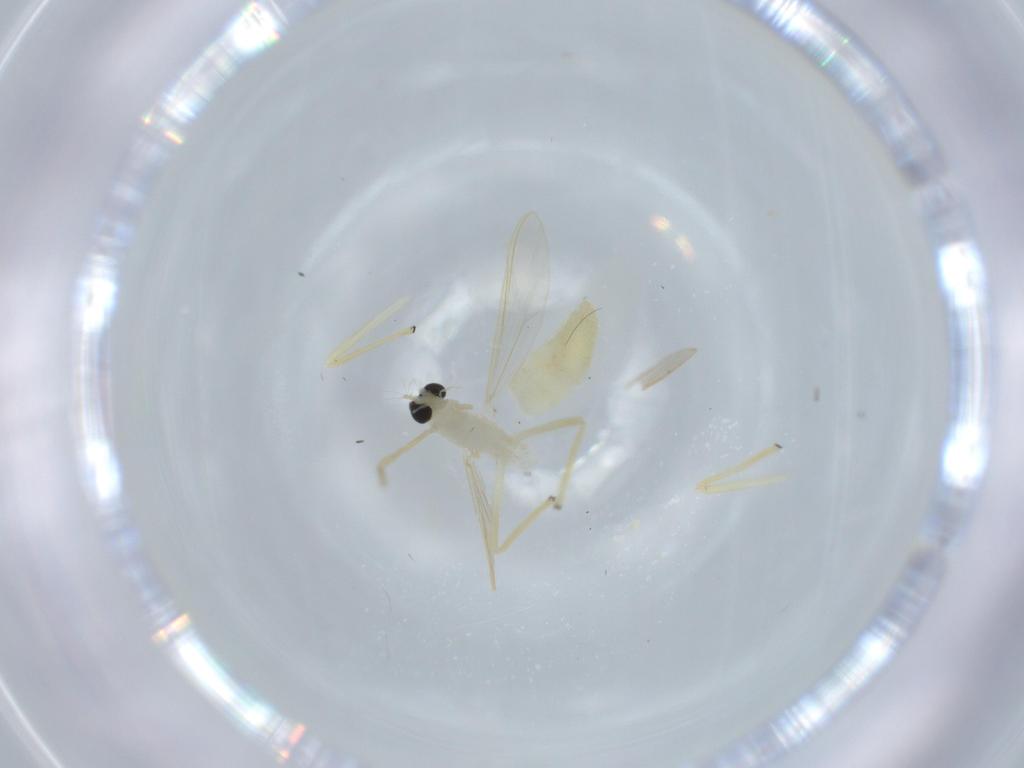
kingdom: Animalia
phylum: Arthropoda
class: Insecta
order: Diptera
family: Chironomidae
